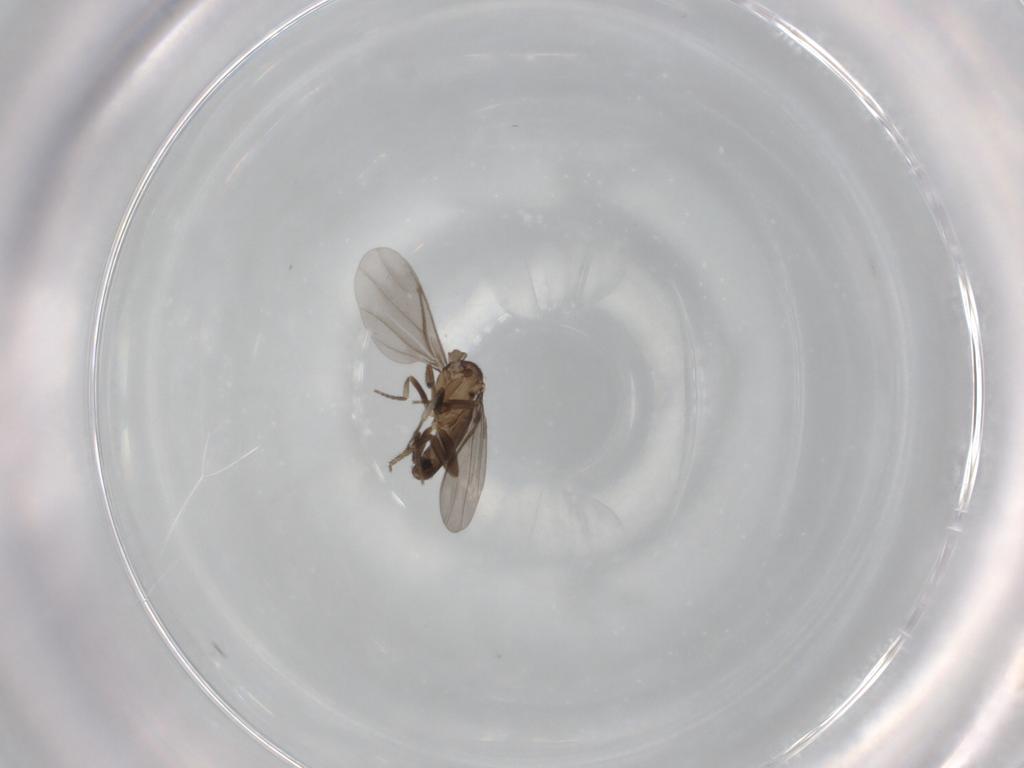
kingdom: Animalia
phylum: Arthropoda
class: Insecta
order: Diptera
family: Phoridae
